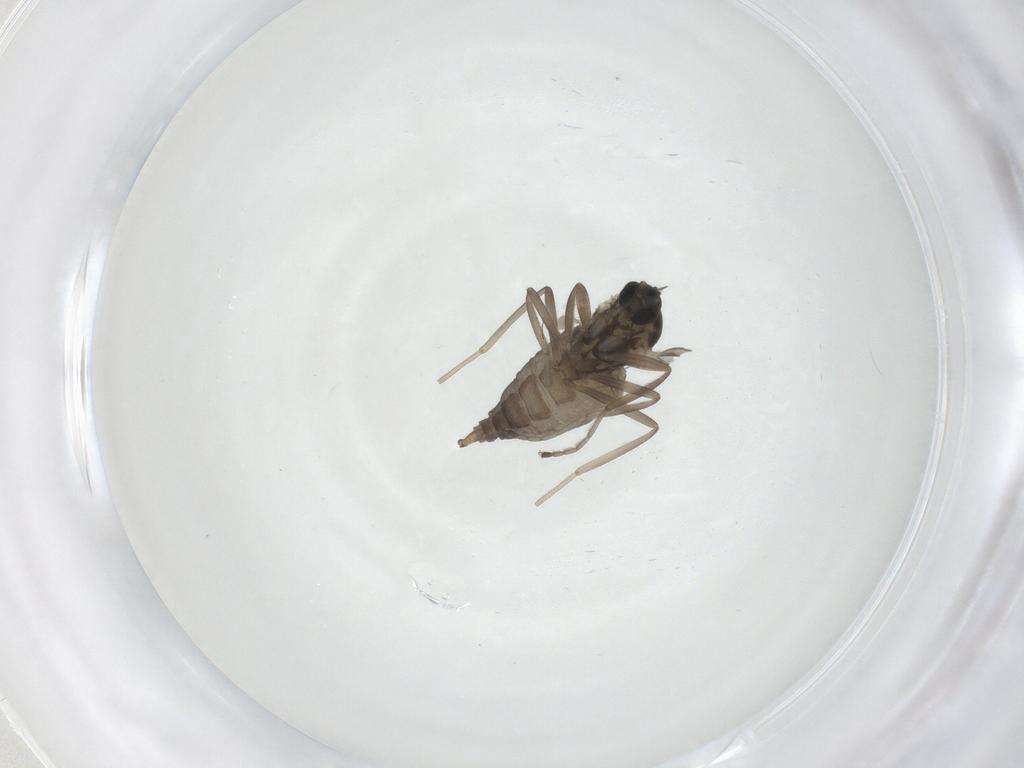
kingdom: Animalia
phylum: Arthropoda
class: Insecta
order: Diptera
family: Cecidomyiidae
